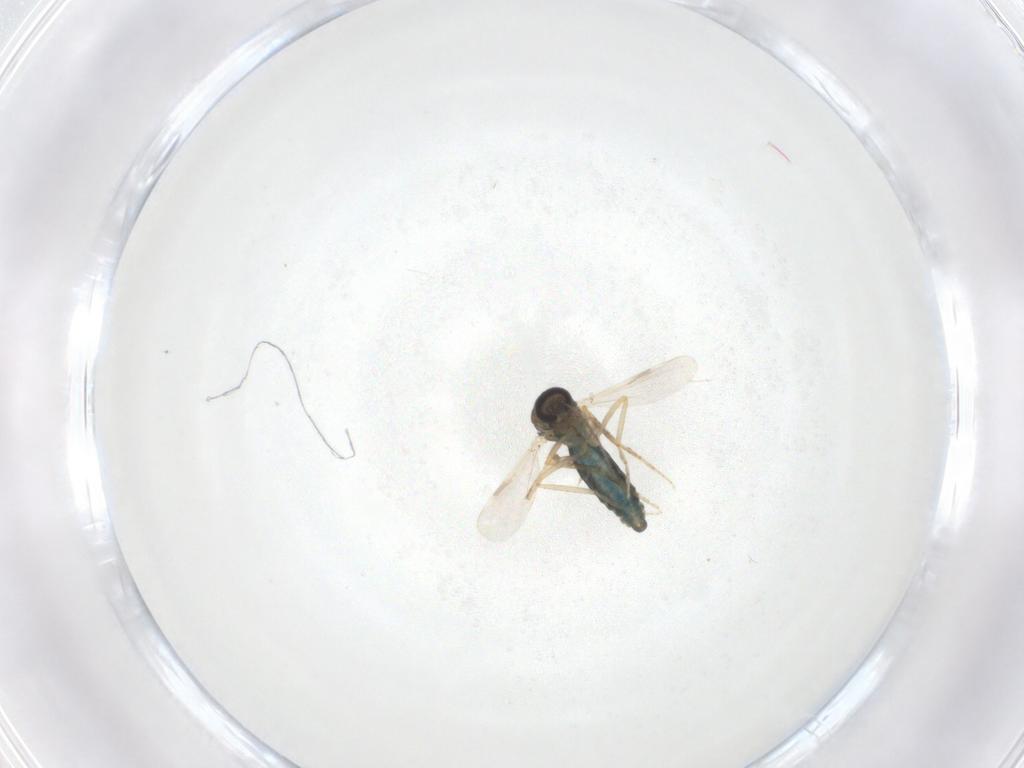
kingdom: Animalia
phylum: Arthropoda
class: Insecta
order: Diptera
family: Ceratopogonidae
